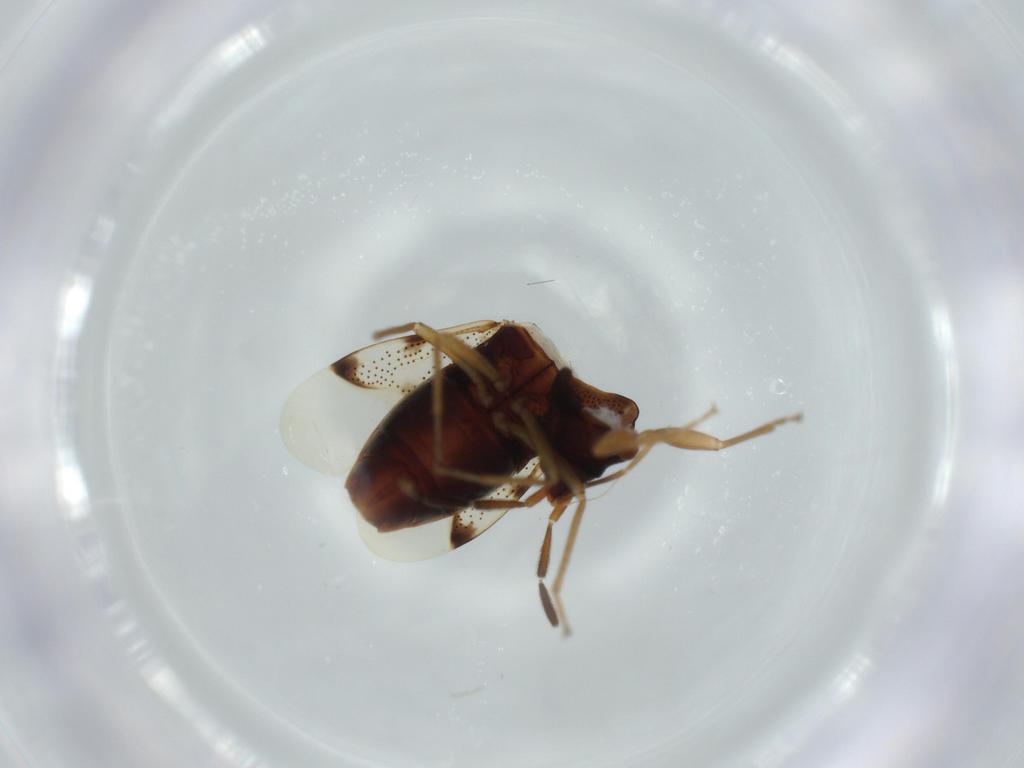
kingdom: Animalia
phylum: Arthropoda
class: Insecta
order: Hemiptera
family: Rhyparochromidae
